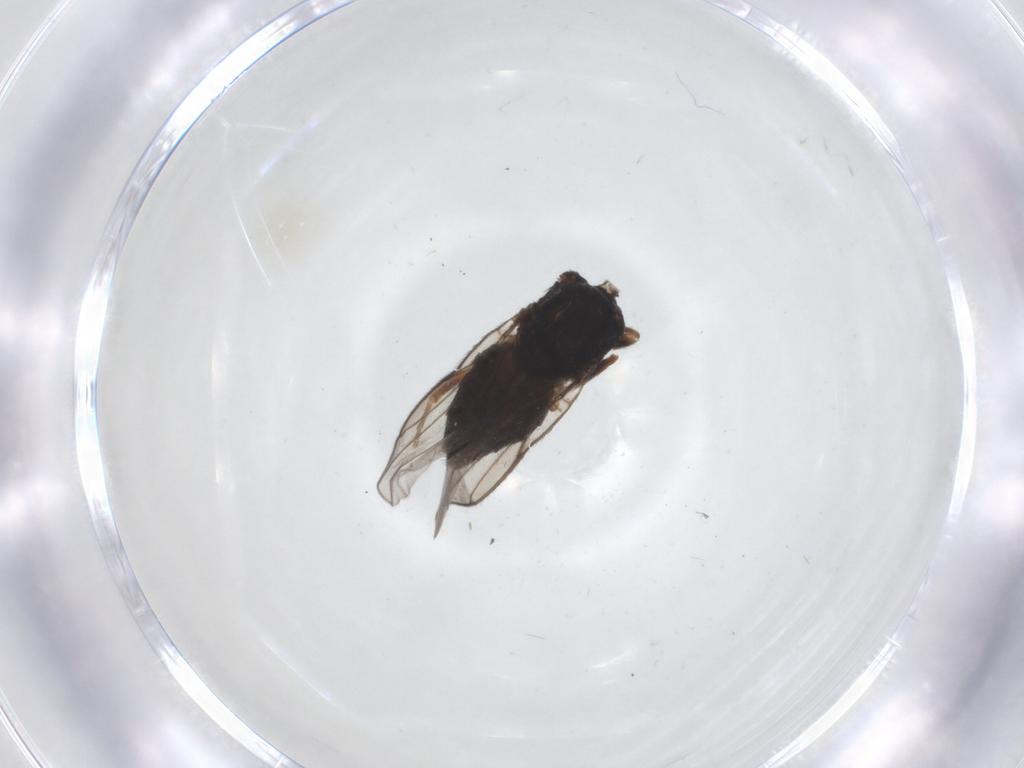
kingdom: Animalia
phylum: Arthropoda
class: Insecta
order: Diptera
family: Chloropidae
